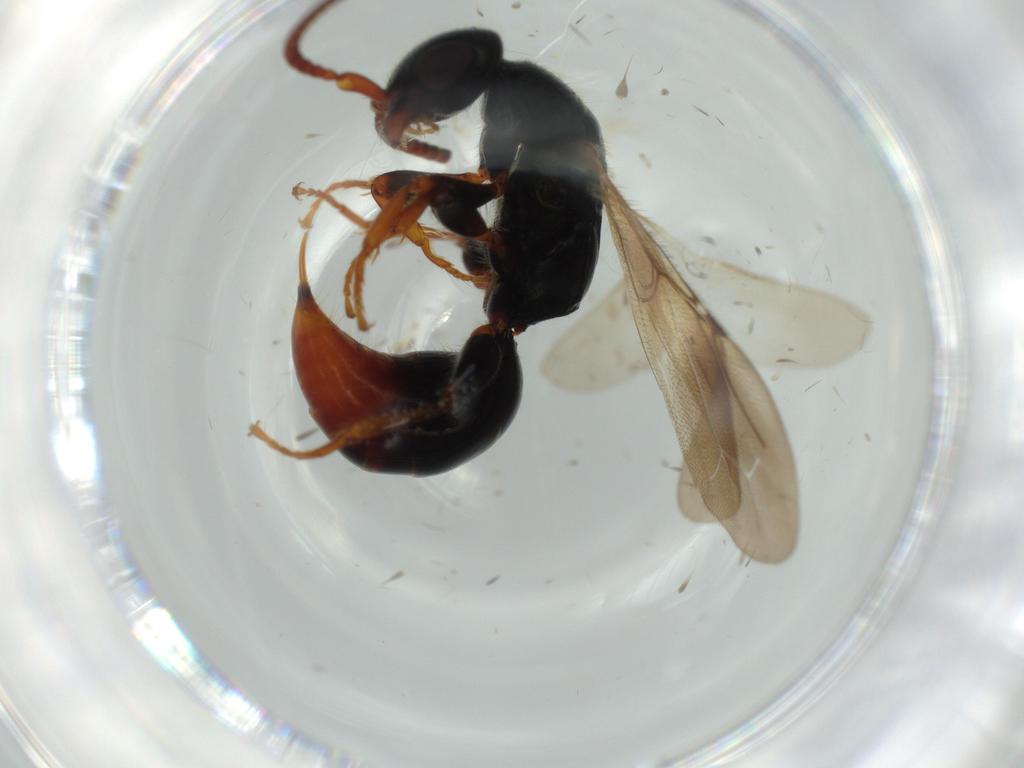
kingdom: Animalia
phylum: Arthropoda
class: Insecta
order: Hymenoptera
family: Bethylidae
